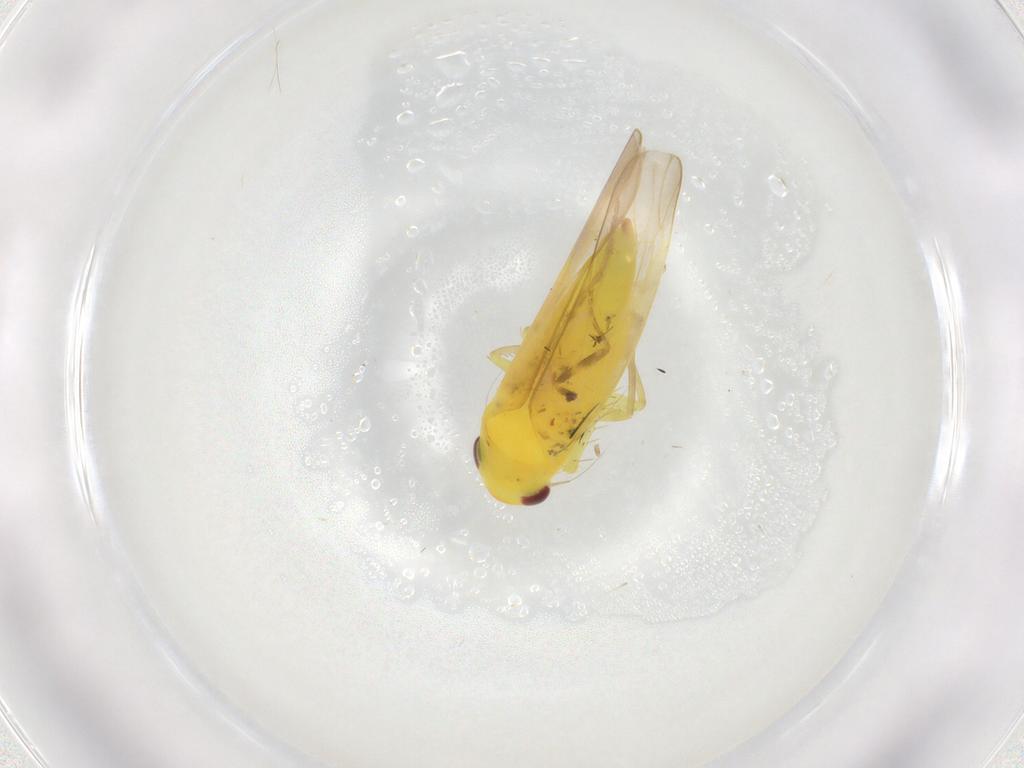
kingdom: Animalia
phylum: Arthropoda
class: Insecta
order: Hemiptera
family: Cicadellidae
